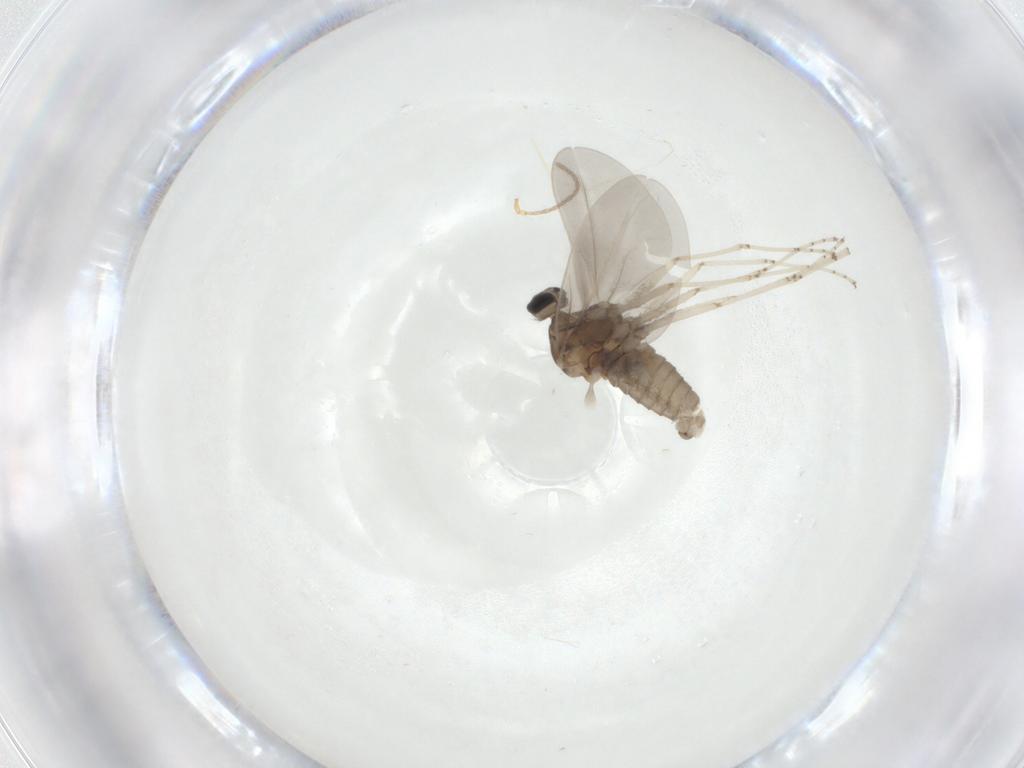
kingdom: Animalia
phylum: Arthropoda
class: Insecta
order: Diptera
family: Cecidomyiidae
